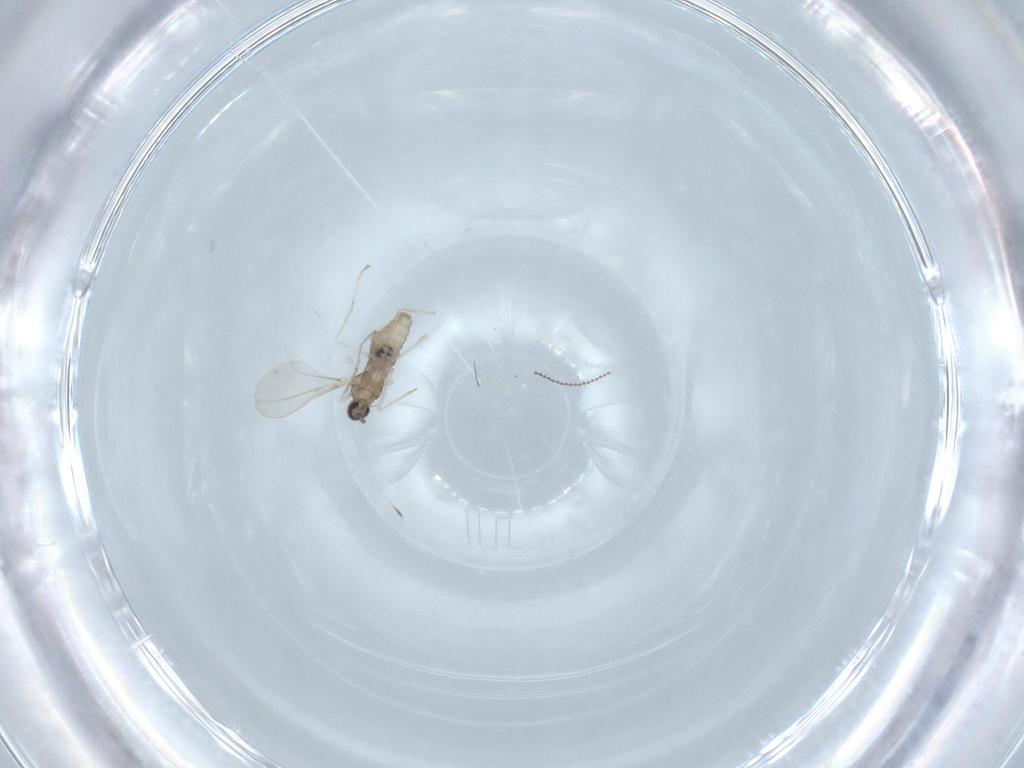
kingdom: Animalia
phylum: Arthropoda
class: Insecta
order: Diptera
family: Cecidomyiidae
